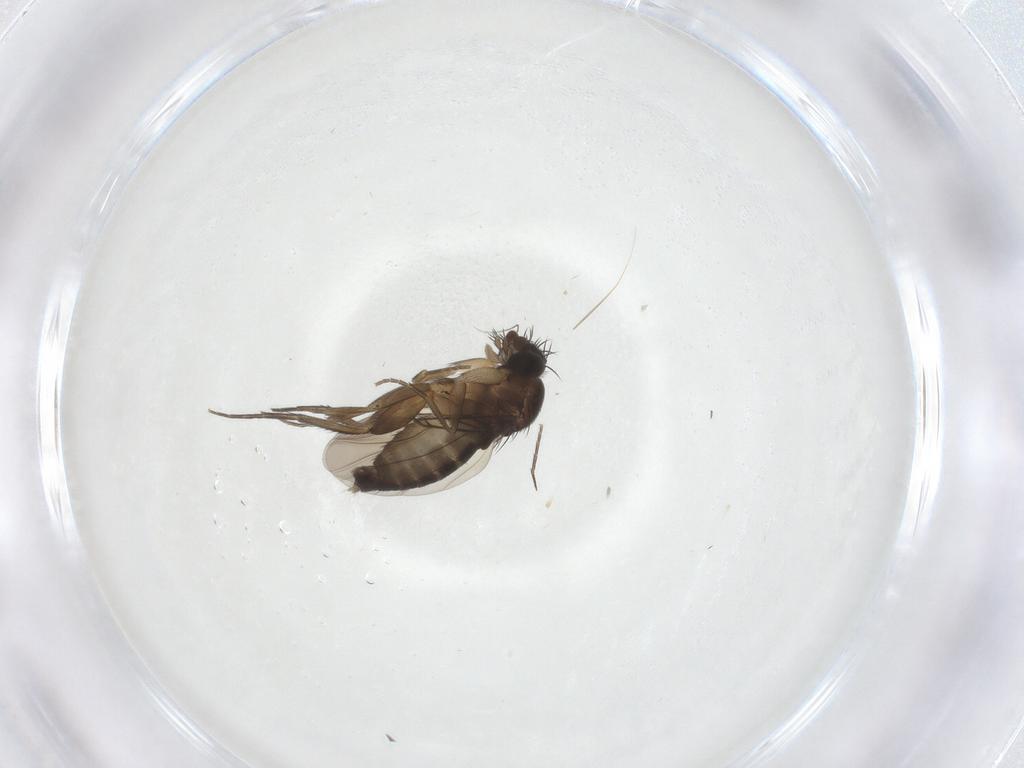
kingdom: Animalia
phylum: Arthropoda
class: Insecta
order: Diptera
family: Phoridae
